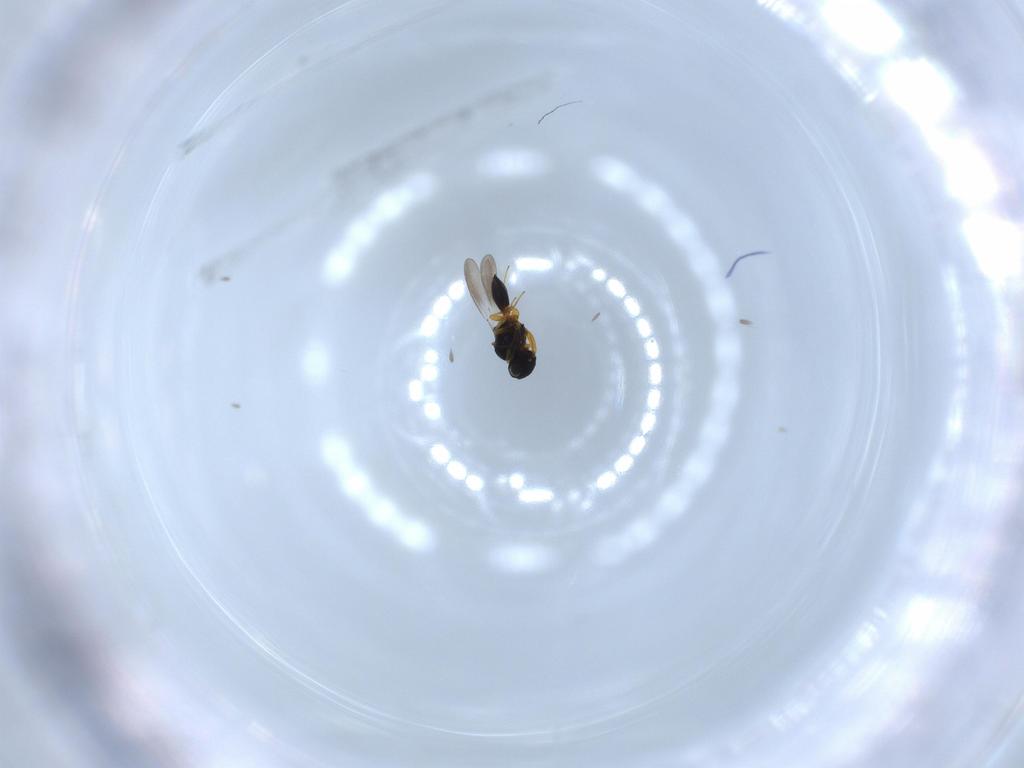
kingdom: Animalia
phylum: Arthropoda
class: Insecta
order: Hymenoptera
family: Platygastridae
